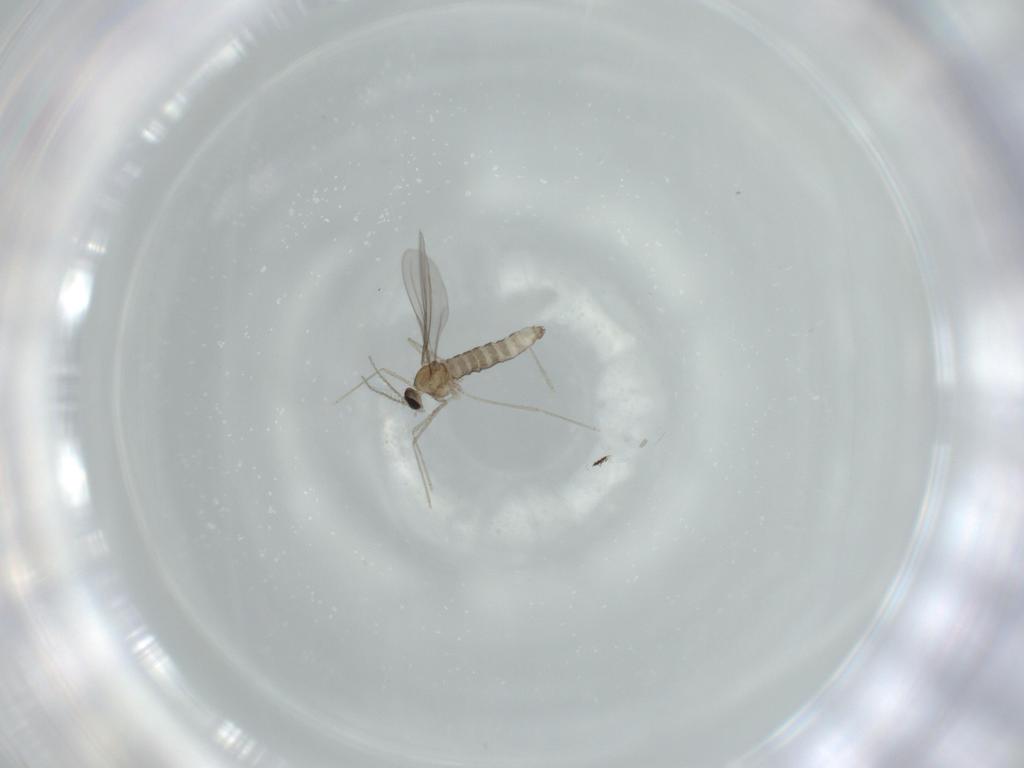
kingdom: Animalia
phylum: Arthropoda
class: Insecta
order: Diptera
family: Cecidomyiidae
